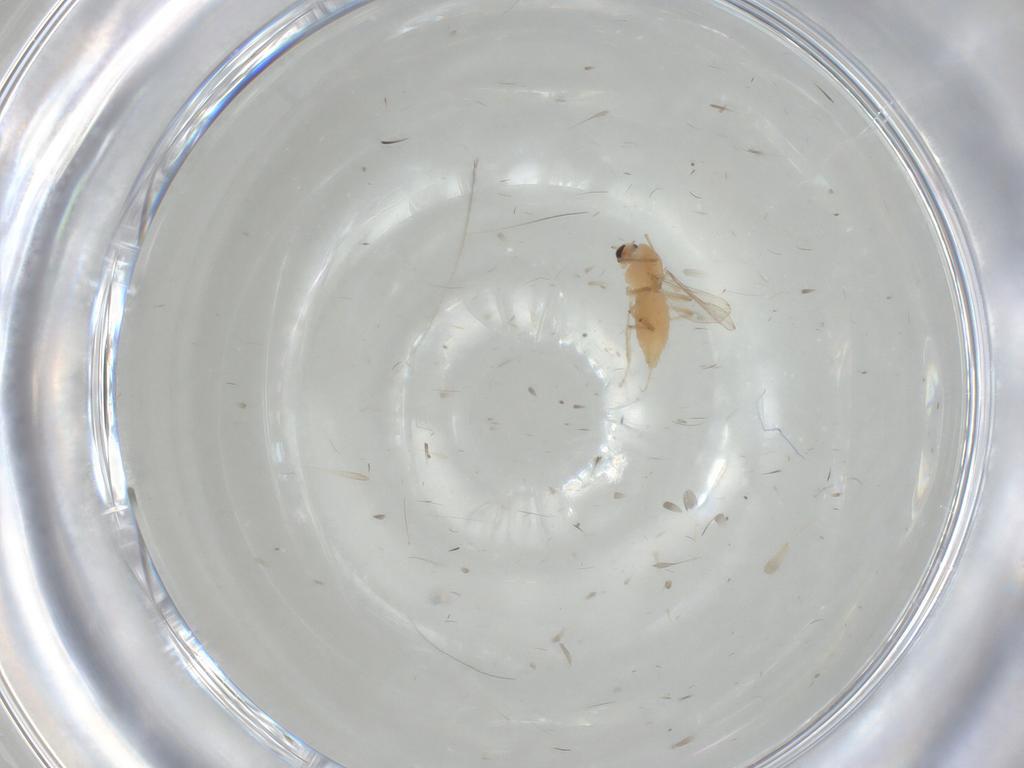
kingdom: Animalia
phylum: Arthropoda
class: Insecta
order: Diptera
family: Chironomidae
